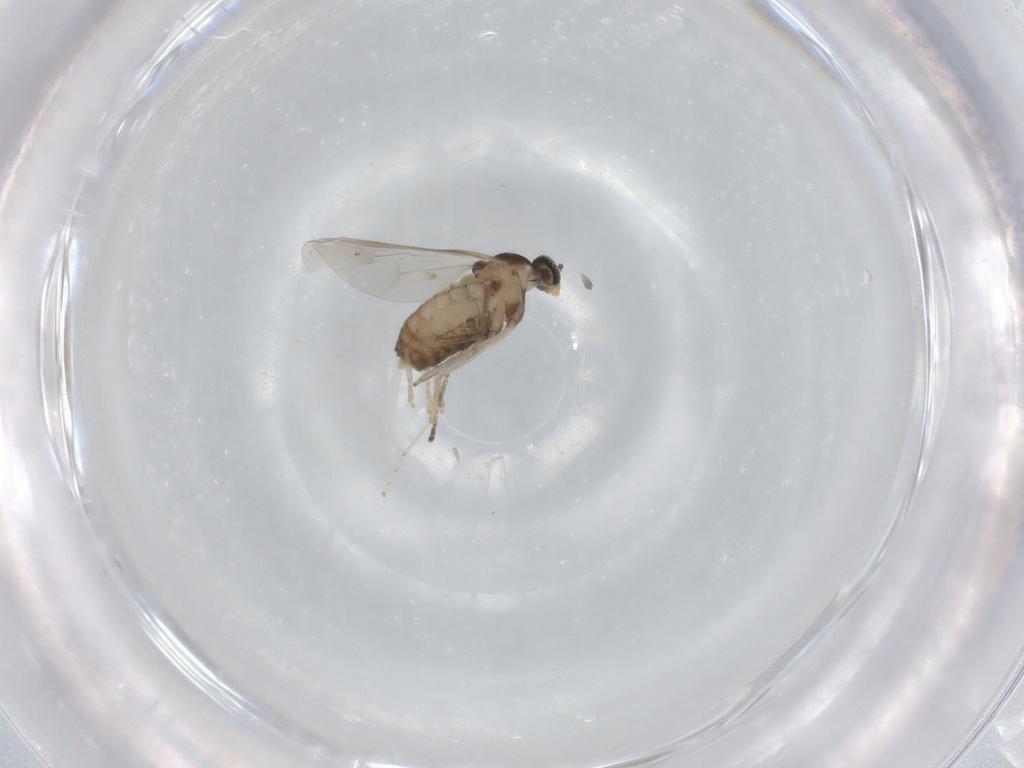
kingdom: Animalia
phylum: Arthropoda
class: Insecta
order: Diptera
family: Cecidomyiidae
